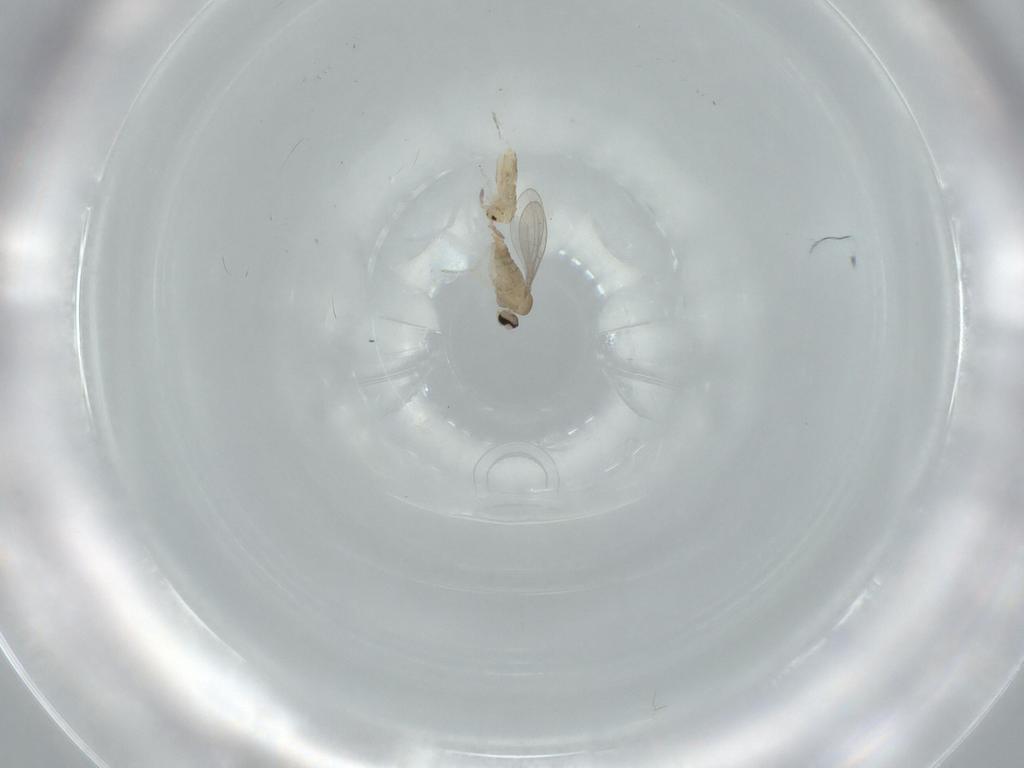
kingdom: Animalia
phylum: Arthropoda
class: Insecta
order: Diptera
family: Cecidomyiidae
